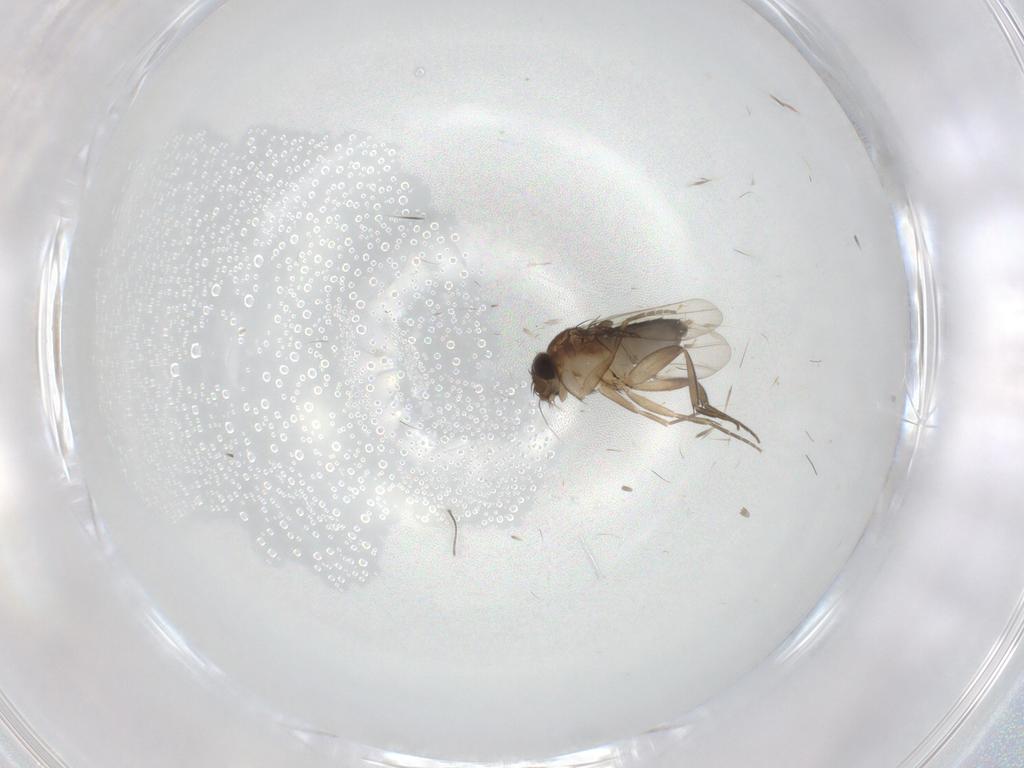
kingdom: Animalia
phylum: Arthropoda
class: Insecta
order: Diptera
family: Phoridae
